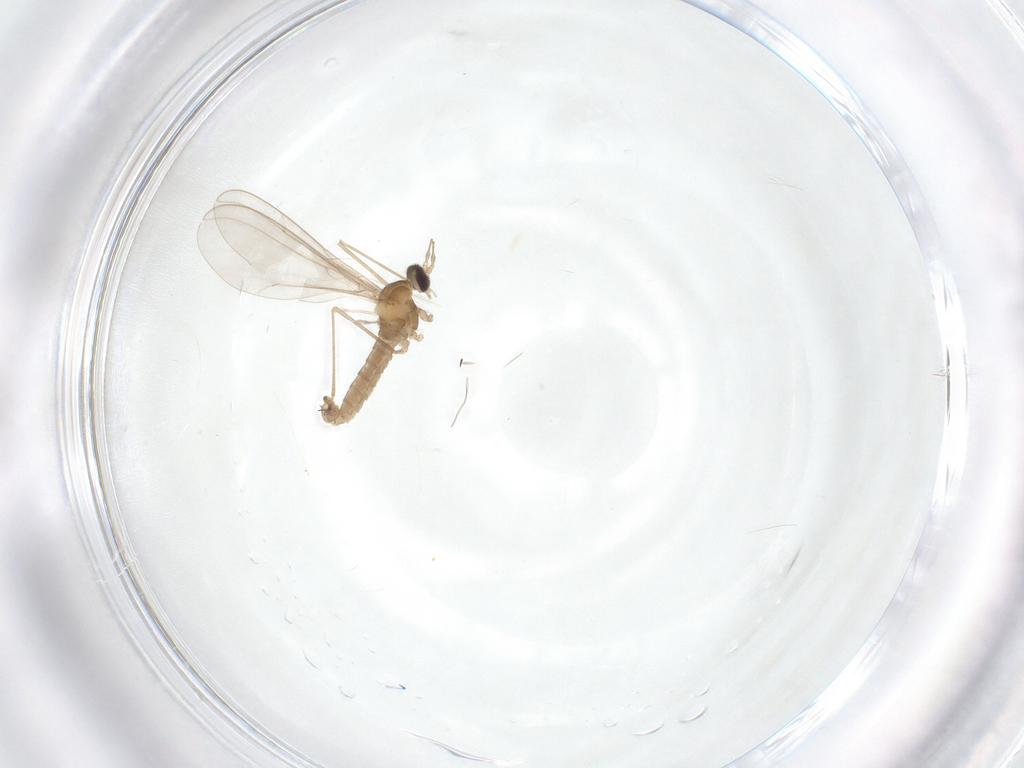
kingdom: Animalia
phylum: Arthropoda
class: Insecta
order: Diptera
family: Cecidomyiidae
